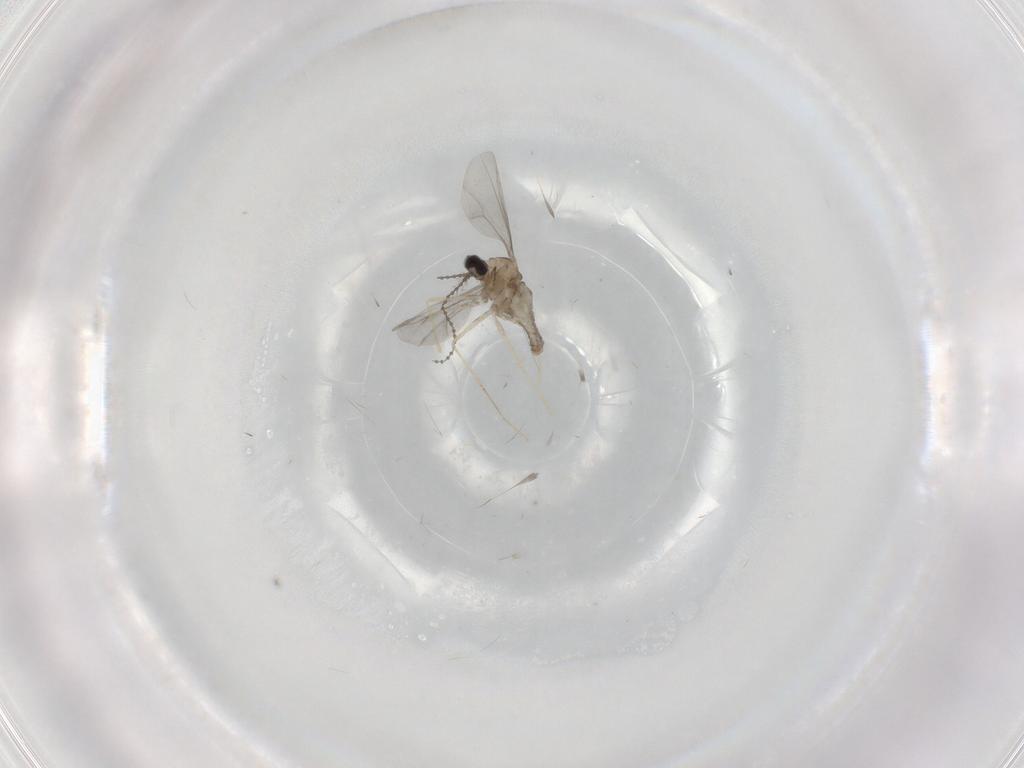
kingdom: Animalia
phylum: Arthropoda
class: Insecta
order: Diptera
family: Cecidomyiidae
